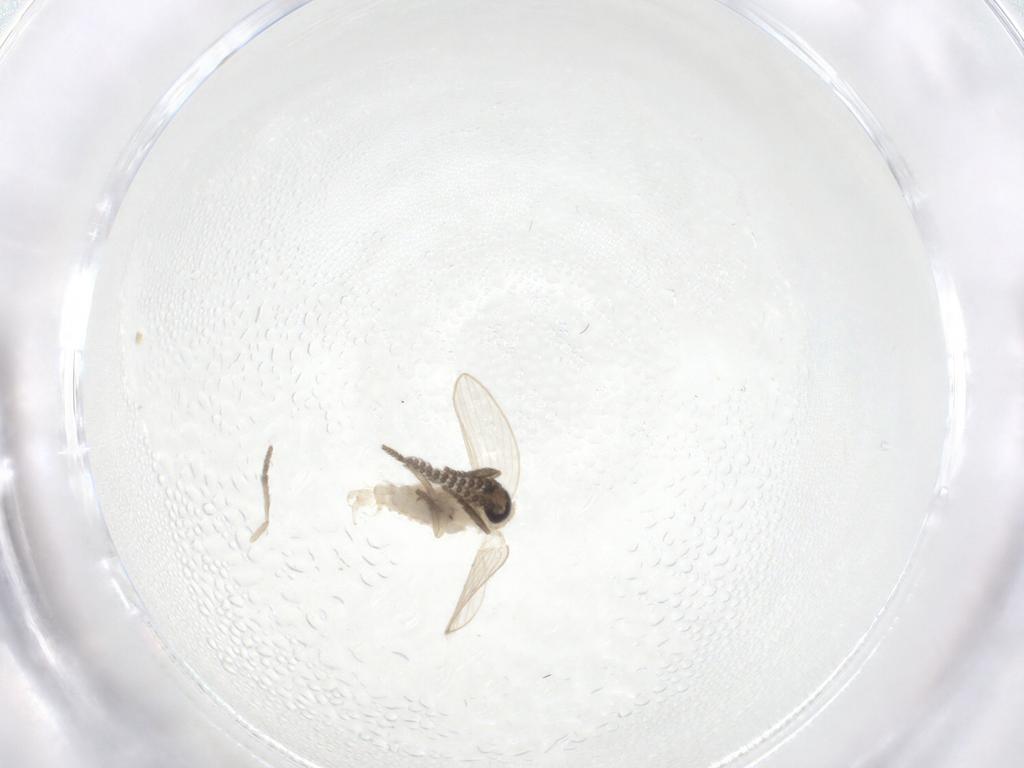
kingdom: Animalia
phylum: Arthropoda
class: Insecta
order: Diptera
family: Psychodidae
